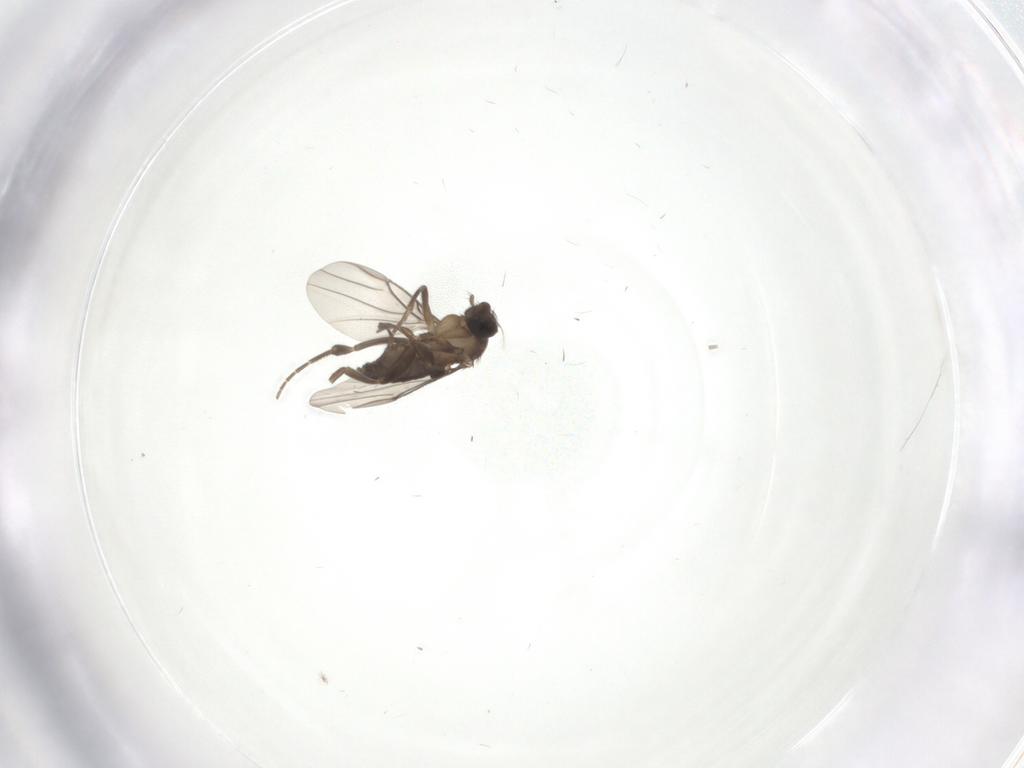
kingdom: Animalia
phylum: Arthropoda
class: Insecta
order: Diptera
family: Phoridae
